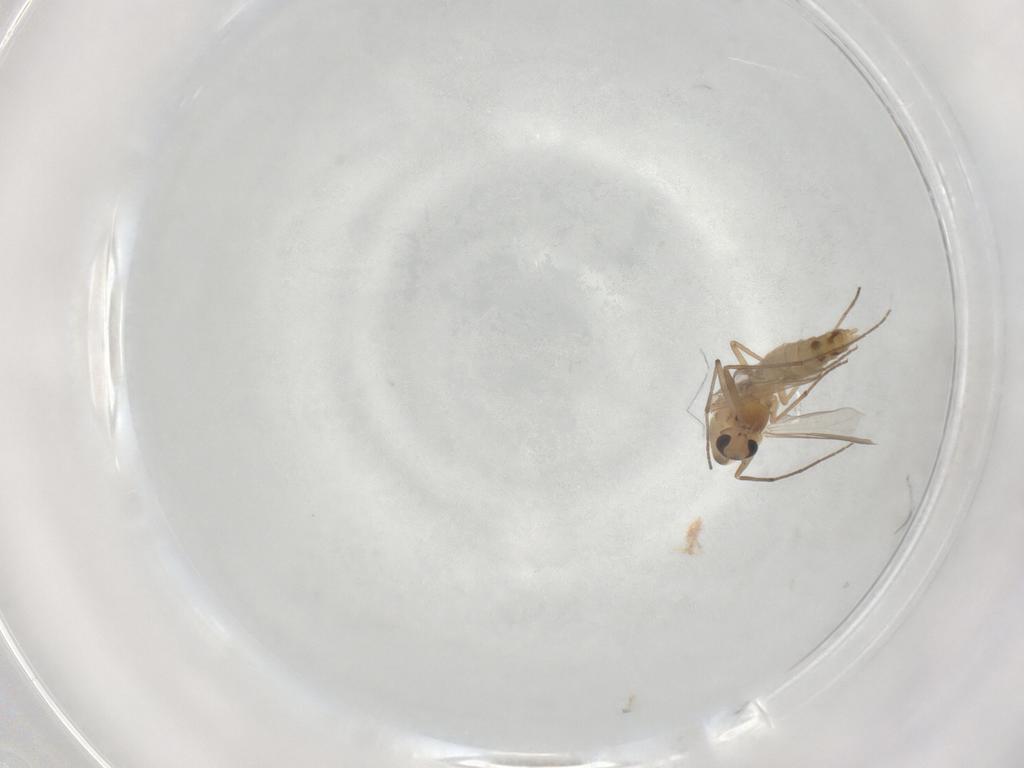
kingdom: Animalia
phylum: Arthropoda
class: Insecta
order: Diptera
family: Chironomidae
